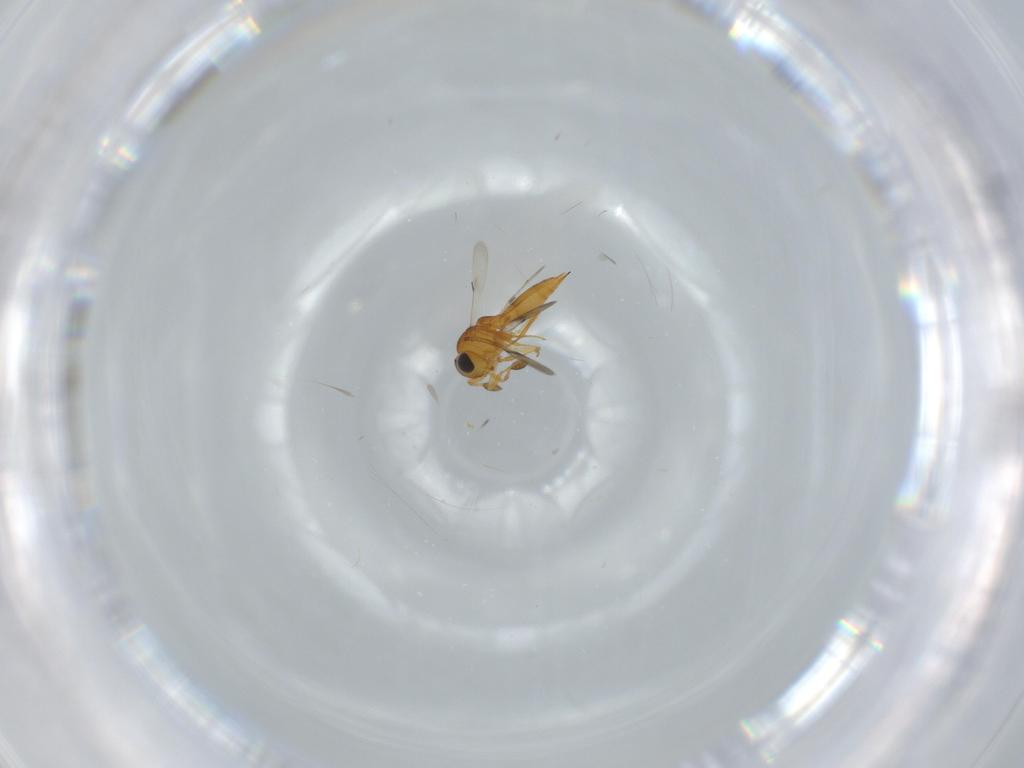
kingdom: Animalia
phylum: Arthropoda
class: Insecta
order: Hymenoptera
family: Scelionidae
